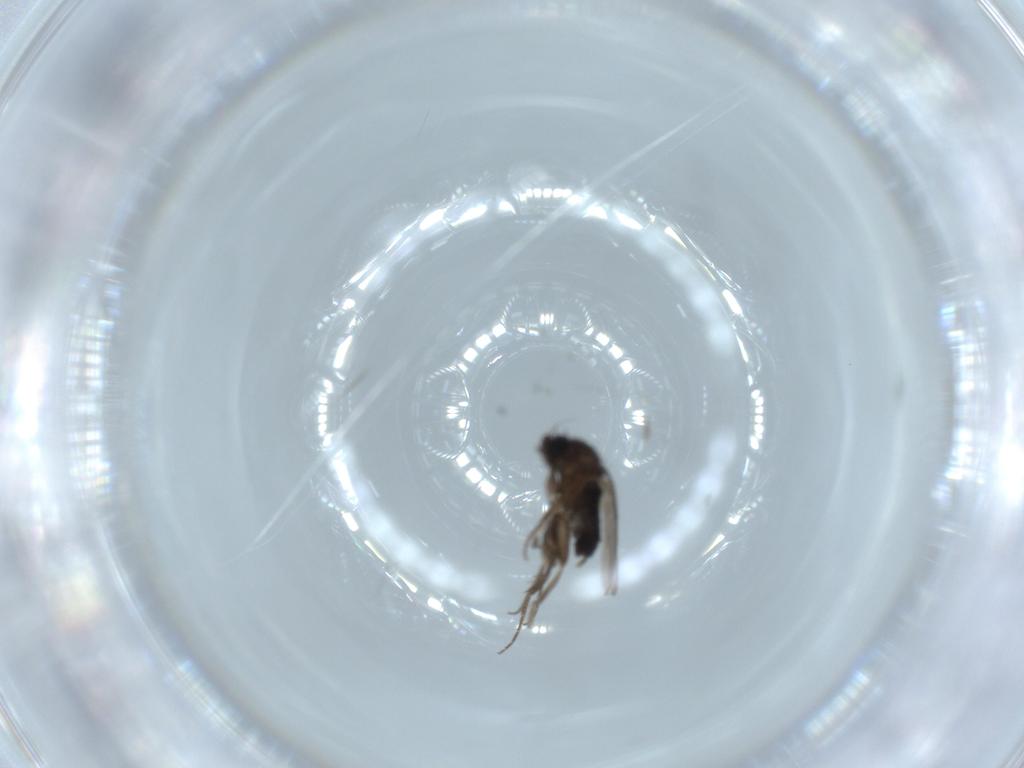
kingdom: Animalia
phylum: Arthropoda
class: Insecta
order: Diptera
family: Phoridae
